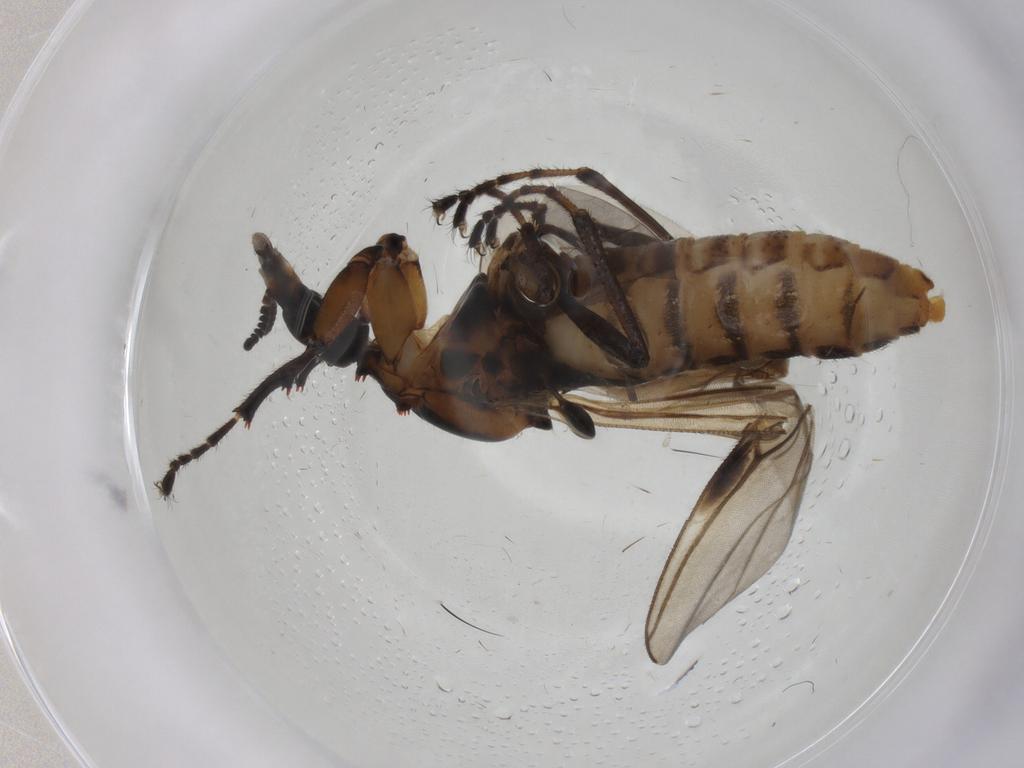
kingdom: Animalia
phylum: Arthropoda
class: Insecta
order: Diptera
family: Bibionidae
